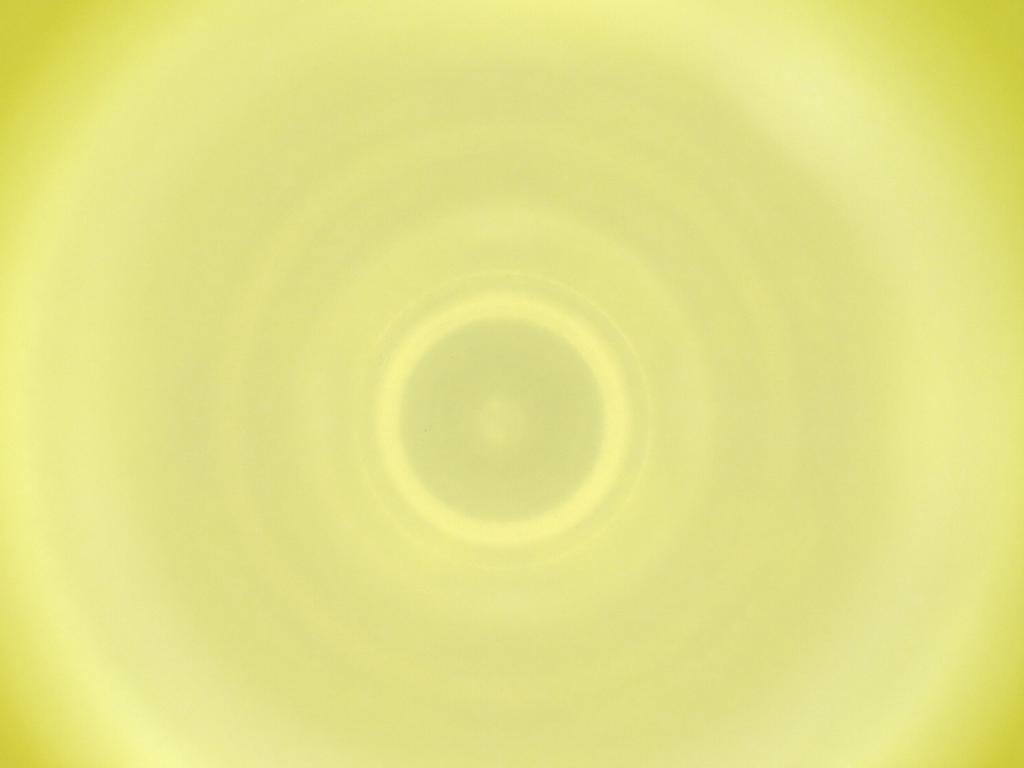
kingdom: Animalia
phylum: Arthropoda
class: Insecta
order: Diptera
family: Cecidomyiidae
